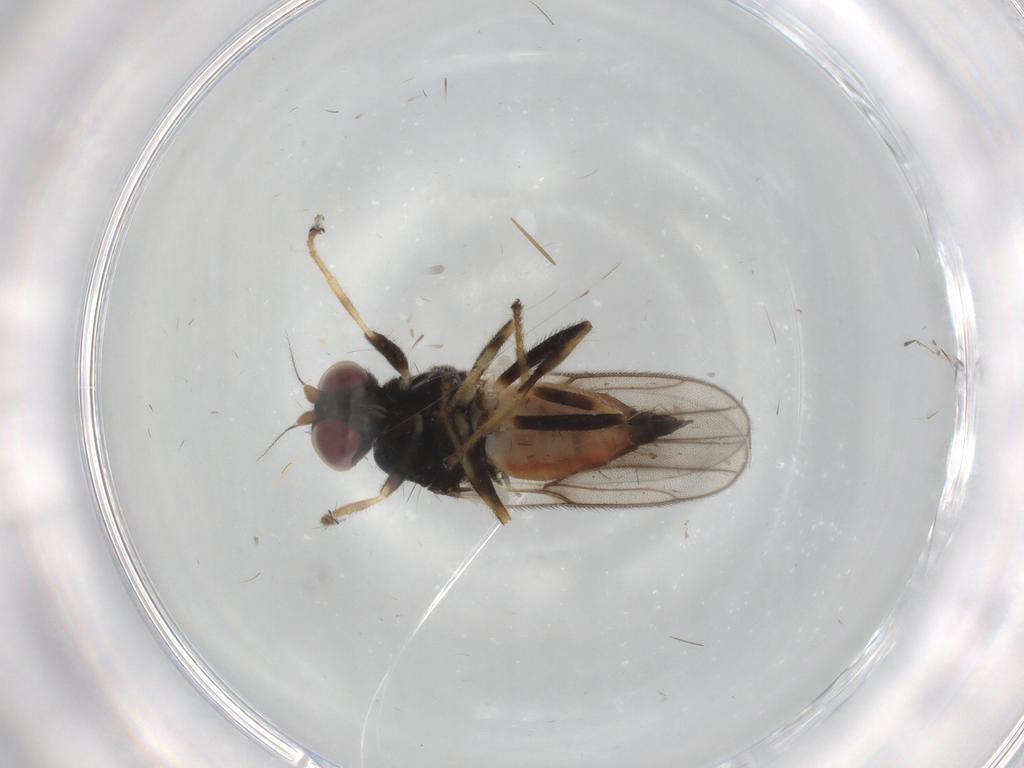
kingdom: Animalia
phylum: Arthropoda
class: Insecta
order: Diptera
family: Chloropidae
